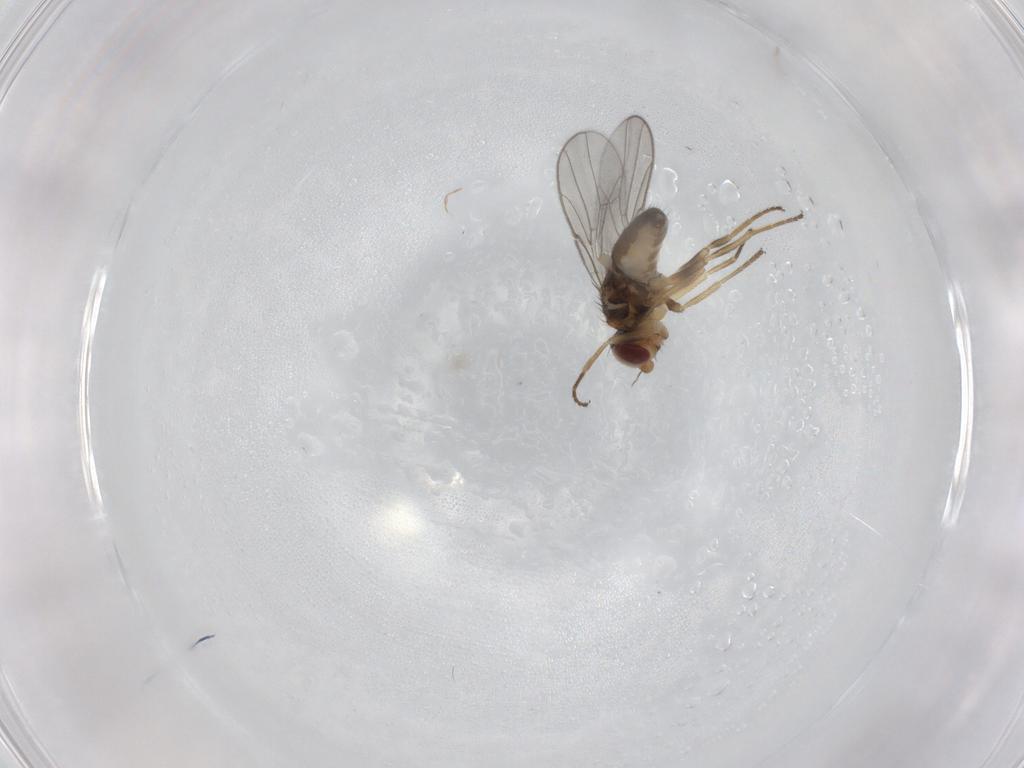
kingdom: Animalia
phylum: Arthropoda
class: Insecta
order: Diptera
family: Chloropidae
